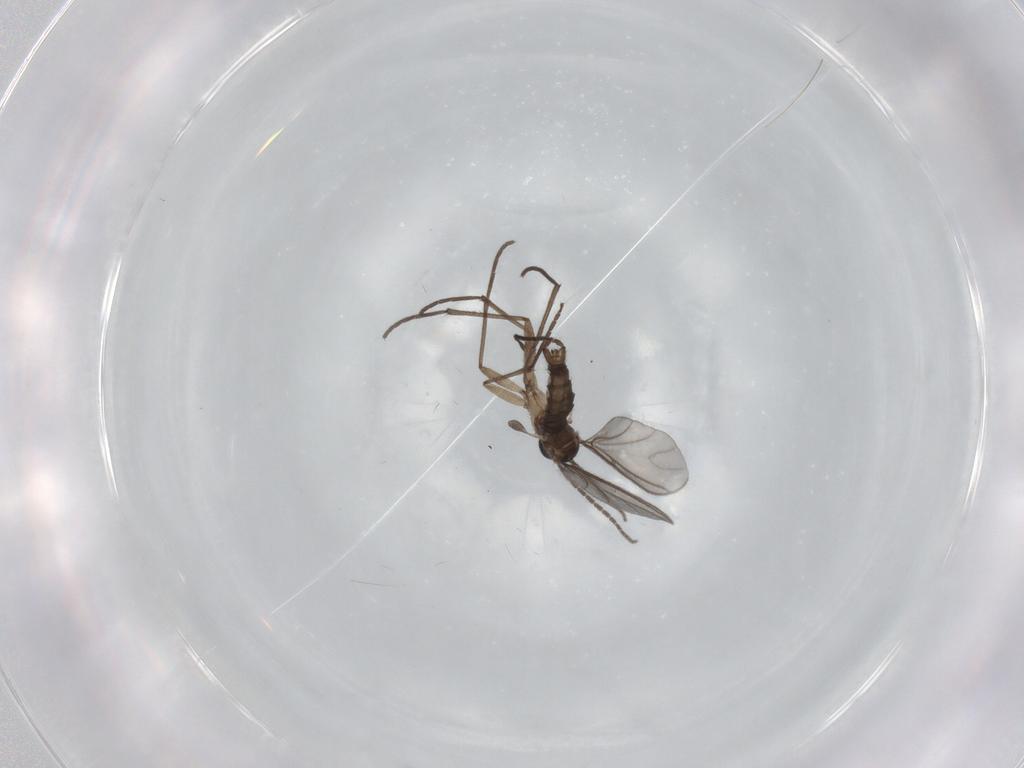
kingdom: Animalia
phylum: Arthropoda
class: Insecta
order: Diptera
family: Sciaridae
